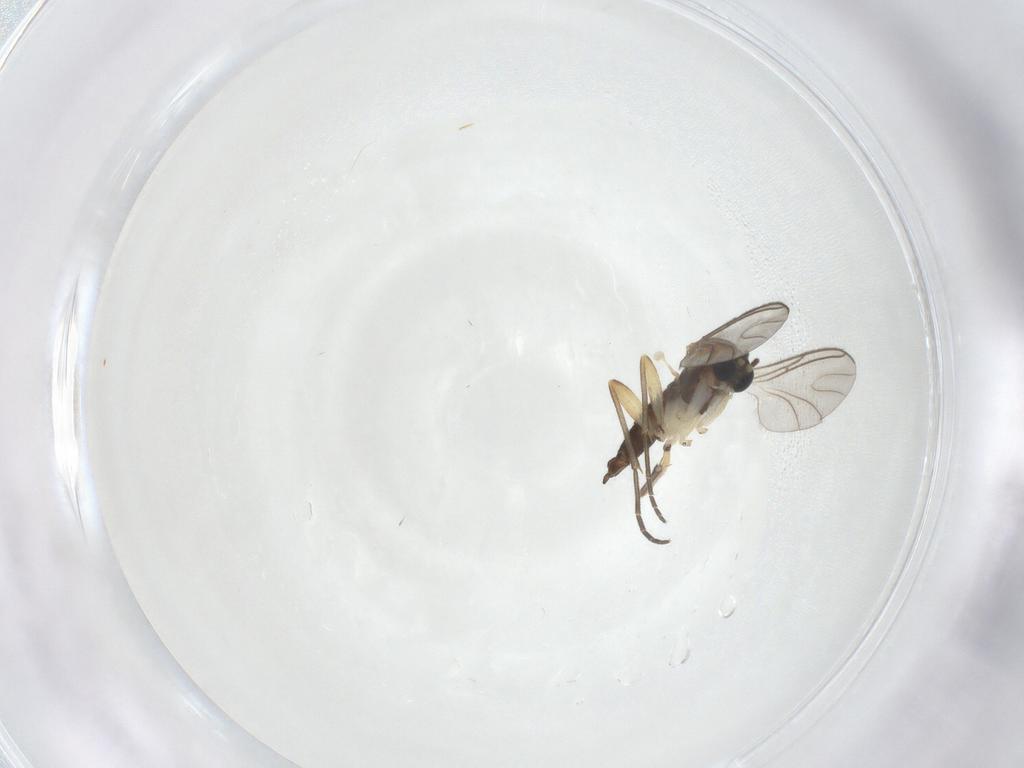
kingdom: Animalia
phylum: Arthropoda
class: Insecta
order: Diptera
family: Sciaridae
